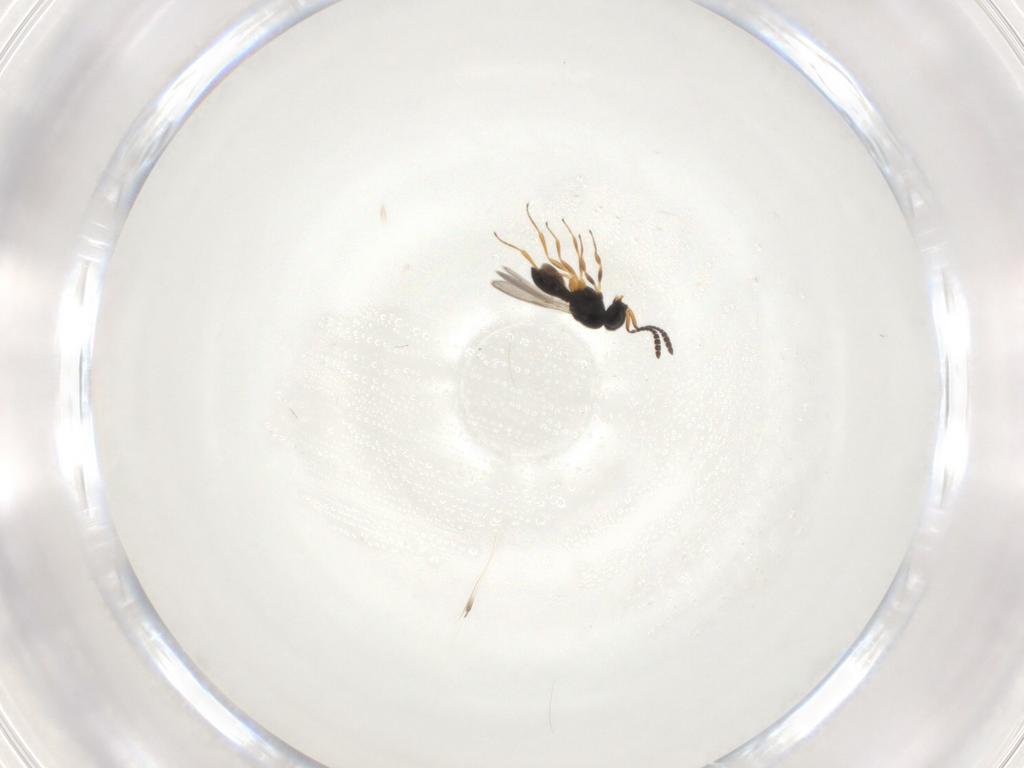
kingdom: Animalia
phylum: Arthropoda
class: Insecta
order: Hymenoptera
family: Scelionidae
